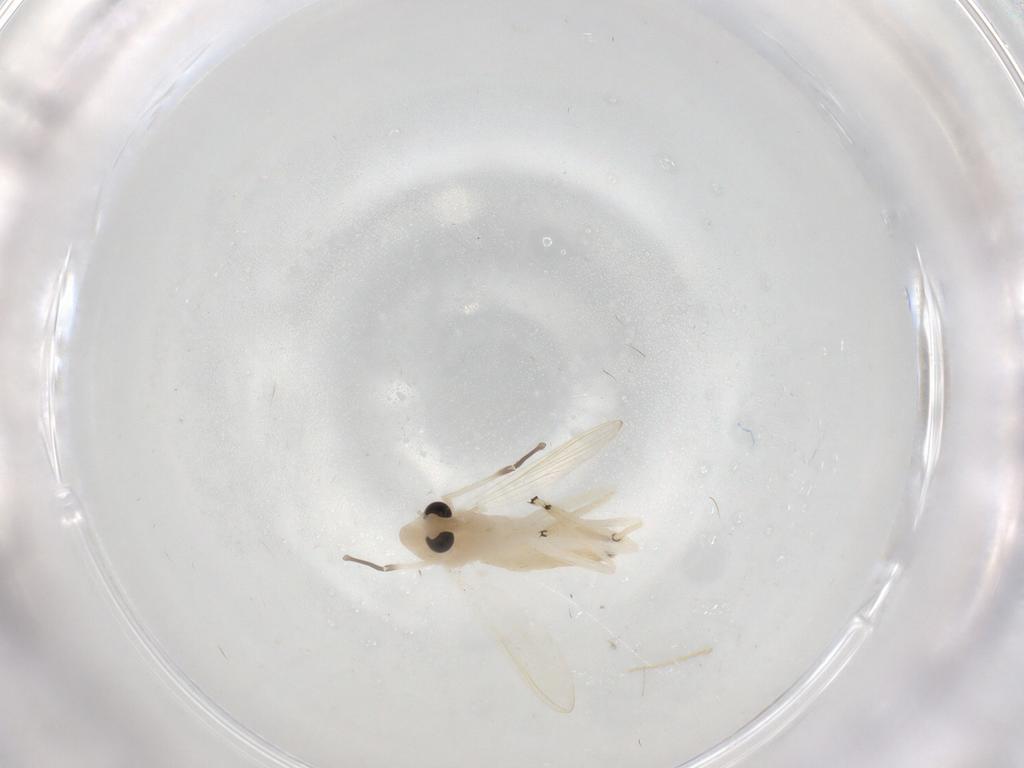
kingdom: Animalia
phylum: Arthropoda
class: Insecta
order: Diptera
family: Chironomidae
